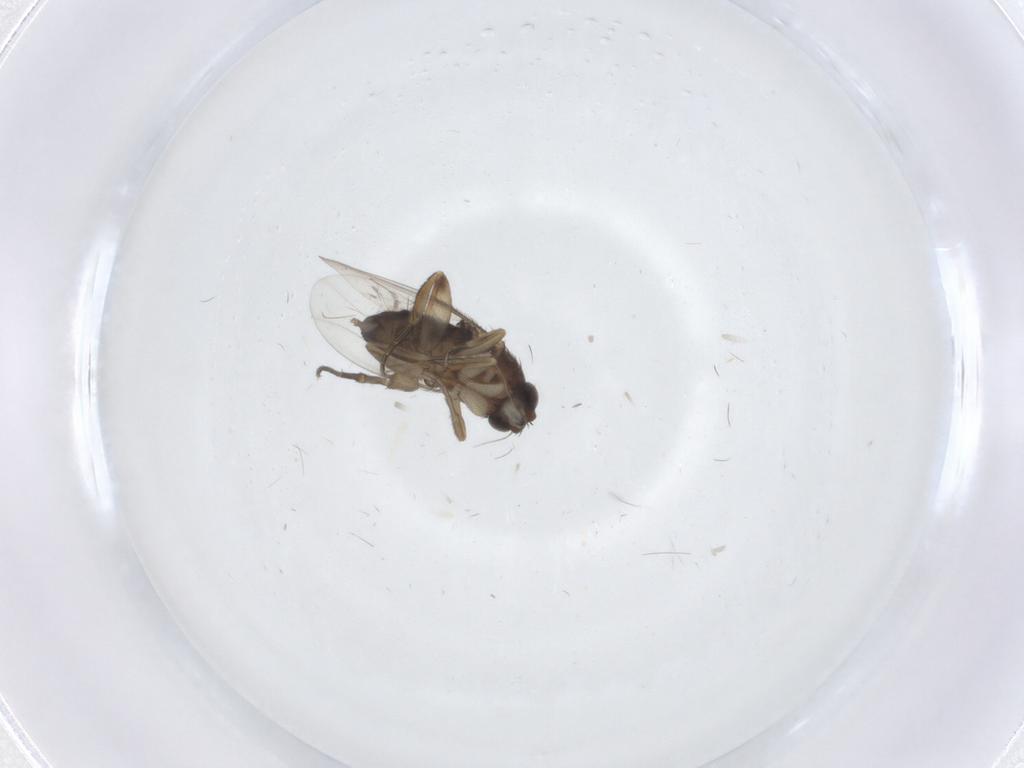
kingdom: Animalia
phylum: Arthropoda
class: Insecta
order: Diptera
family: Phoridae
